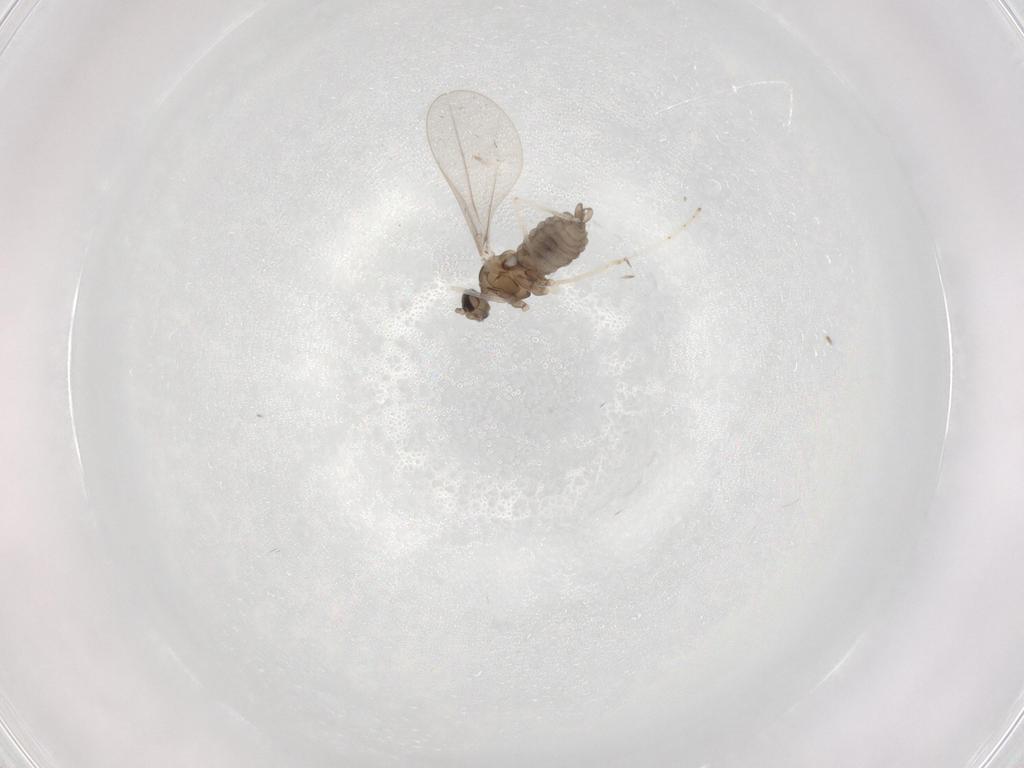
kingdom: Animalia
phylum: Arthropoda
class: Insecta
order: Diptera
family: Cecidomyiidae
